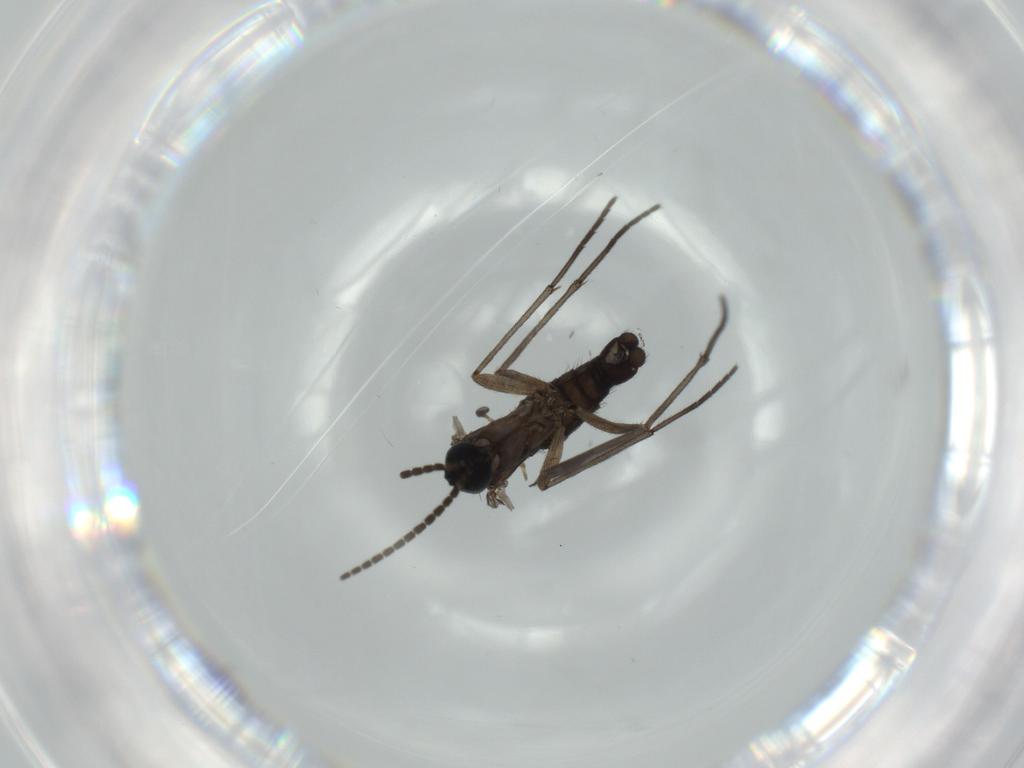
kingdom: Animalia
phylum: Arthropoda
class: Insecta
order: Diptera
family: Sciaridae
